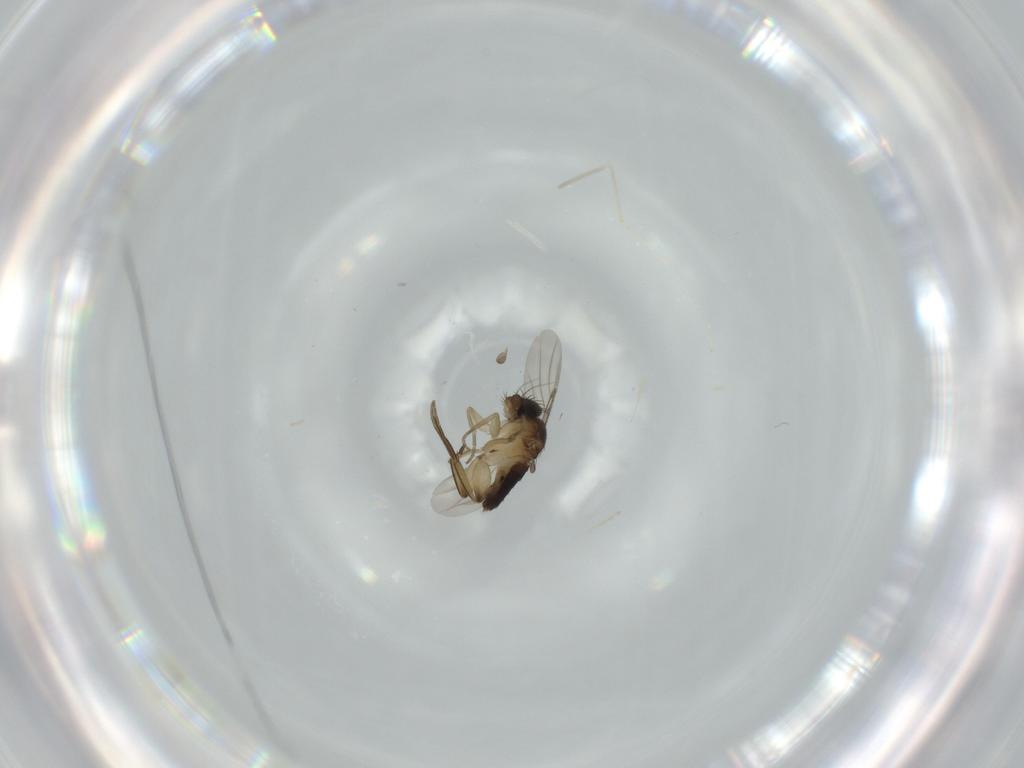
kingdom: Animalia
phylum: Arthropoda
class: Insecta
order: Diptera
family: Phoridae
